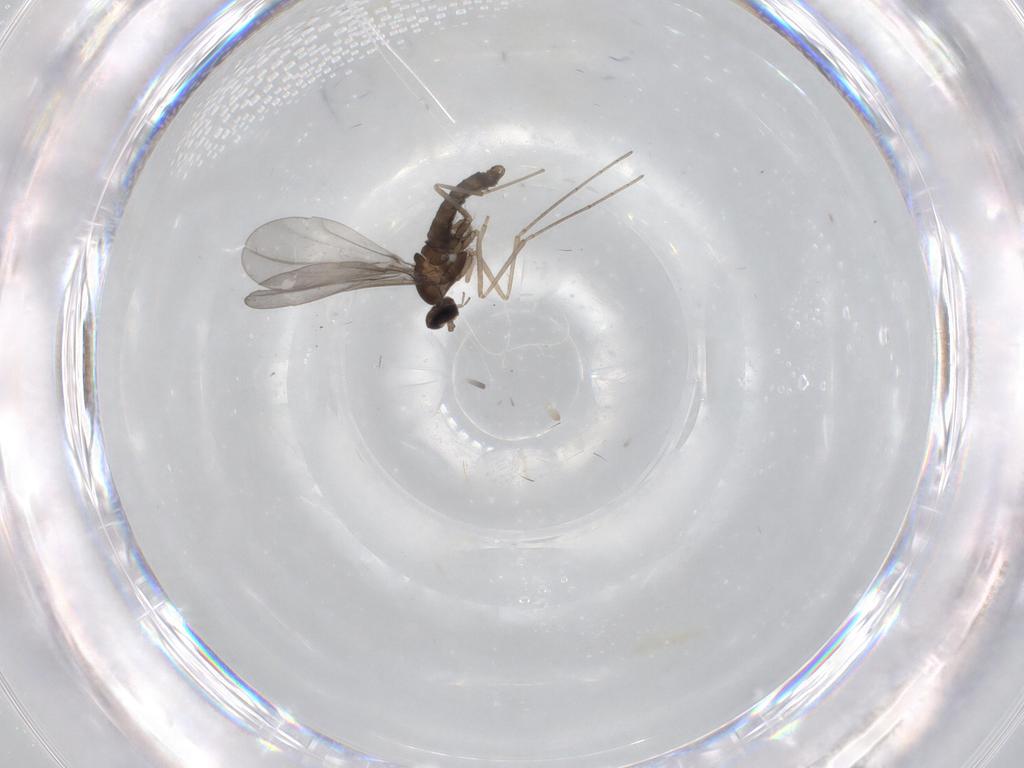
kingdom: Animalia
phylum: Arthropoda
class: Insecta
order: Diptera
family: Cecidomyiidae
